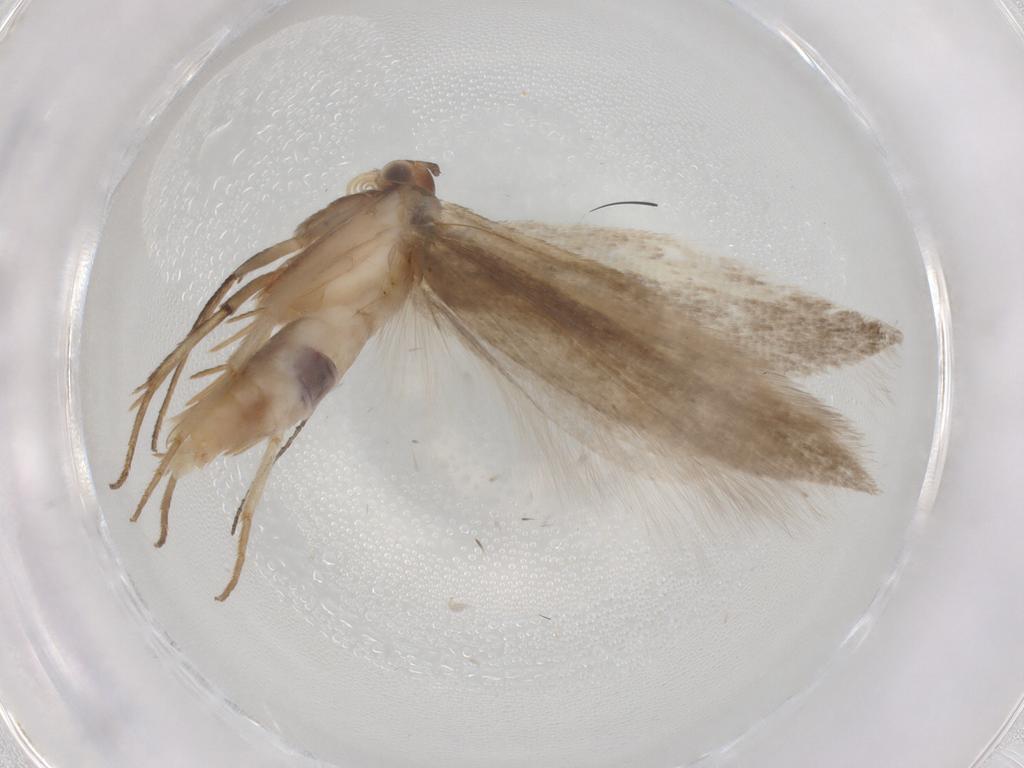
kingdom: Animalia
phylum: Arthropoda
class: Insecta
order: Lepidoptera
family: Gelechiidae
